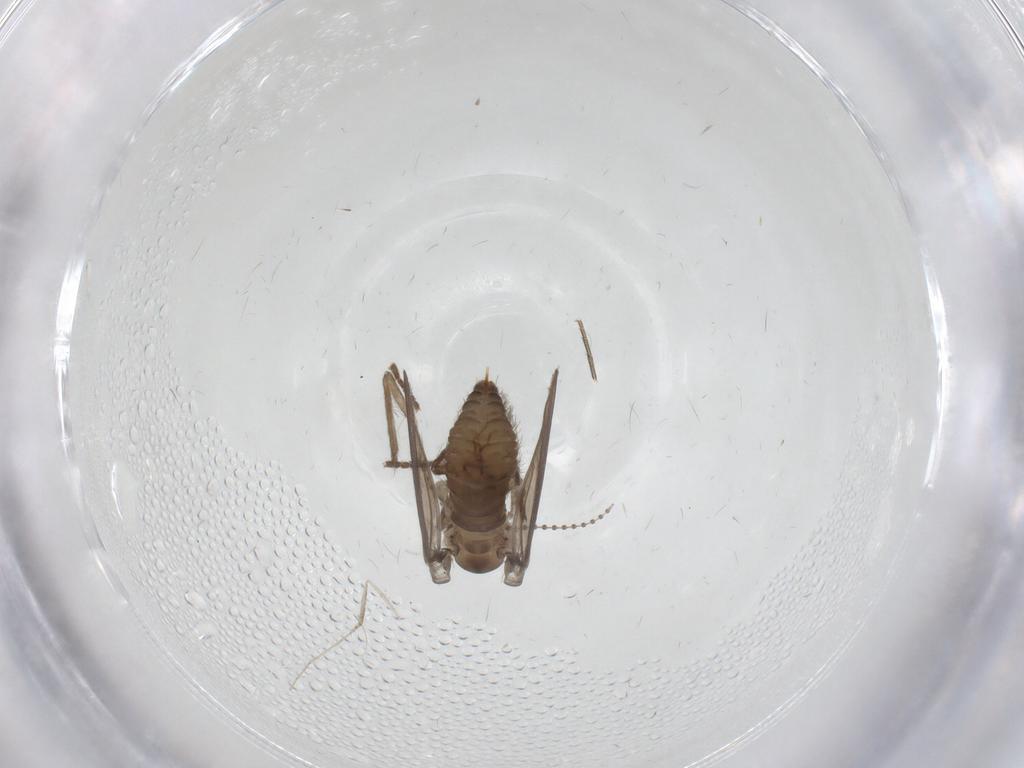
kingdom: Animalia
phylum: Arthropoda
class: Insecta
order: Diptera
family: Psychodidae
